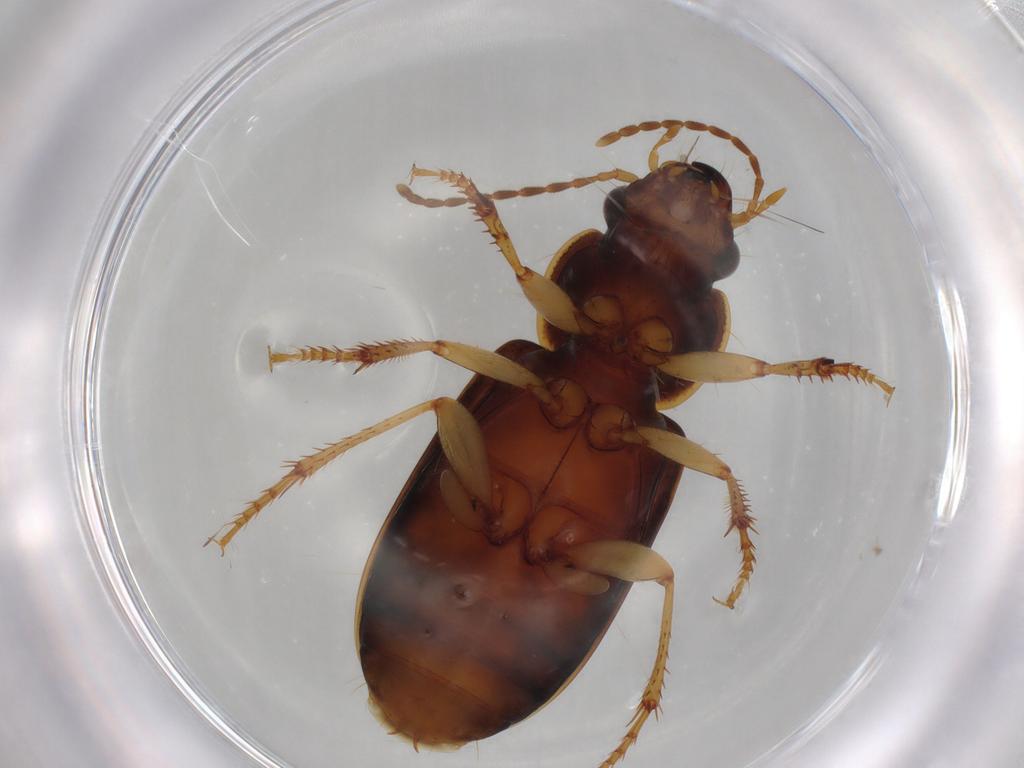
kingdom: Animalia
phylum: Arthropoda
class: Insecta
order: Coleoptera
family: Carabidae
